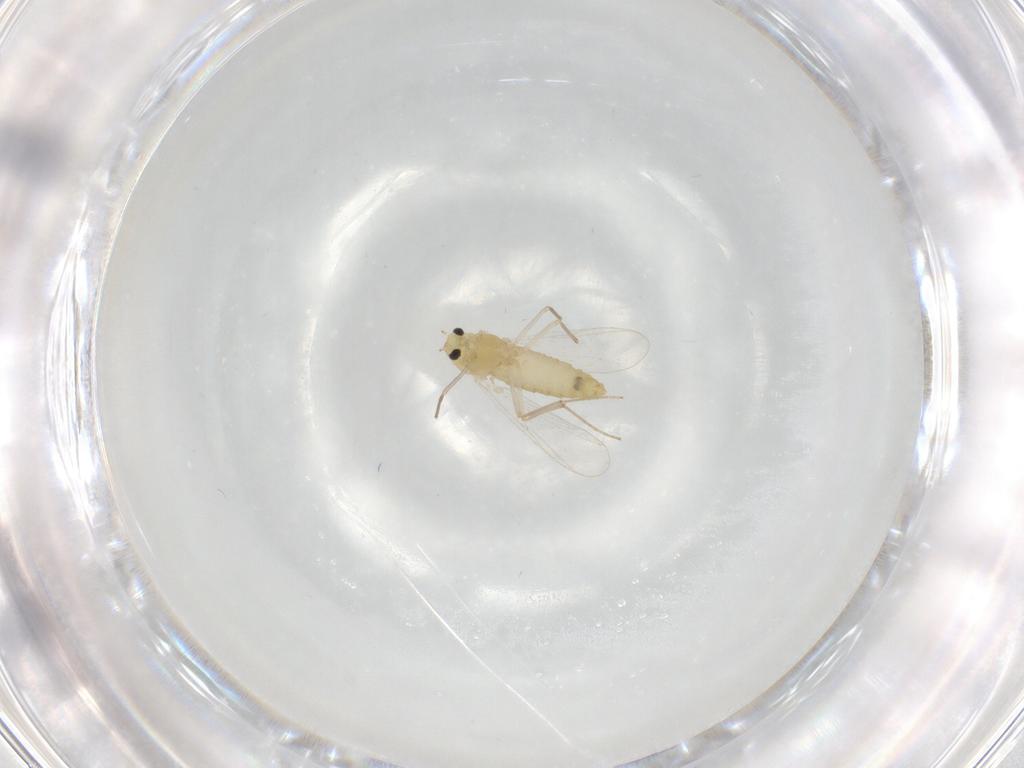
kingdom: Animalia
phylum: Arthropoda
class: Insecta
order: Diptera
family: Chironomidae
